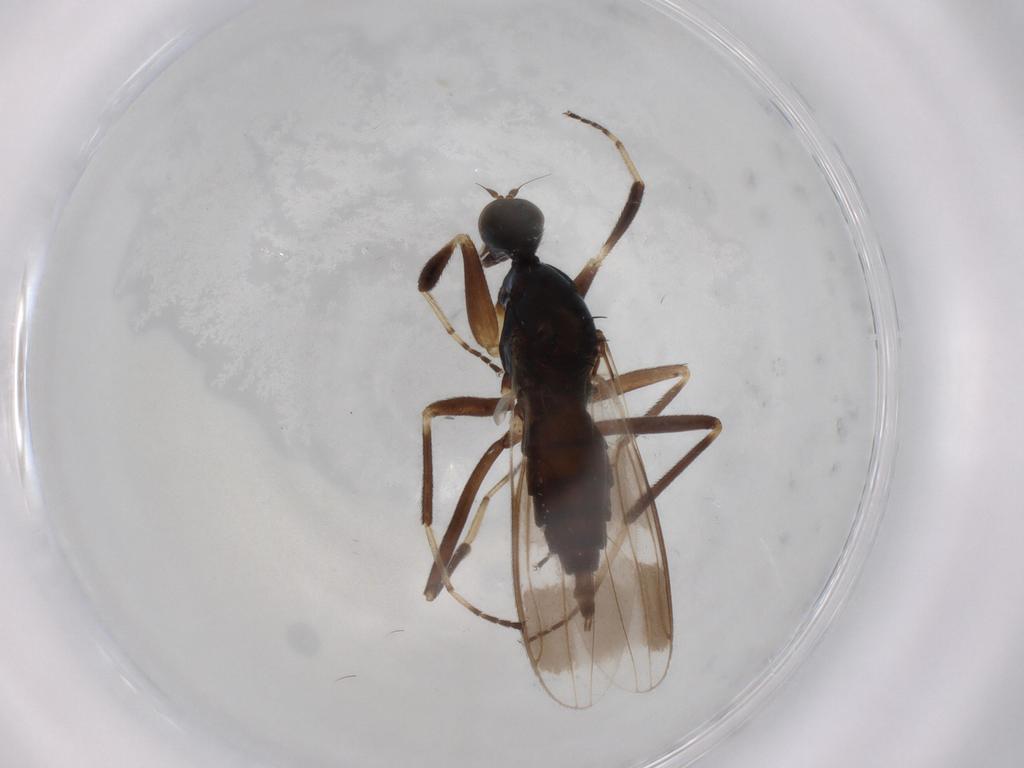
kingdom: Animalia
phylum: Arthropoda
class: Insecta
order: Diptera
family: Hybotidae
